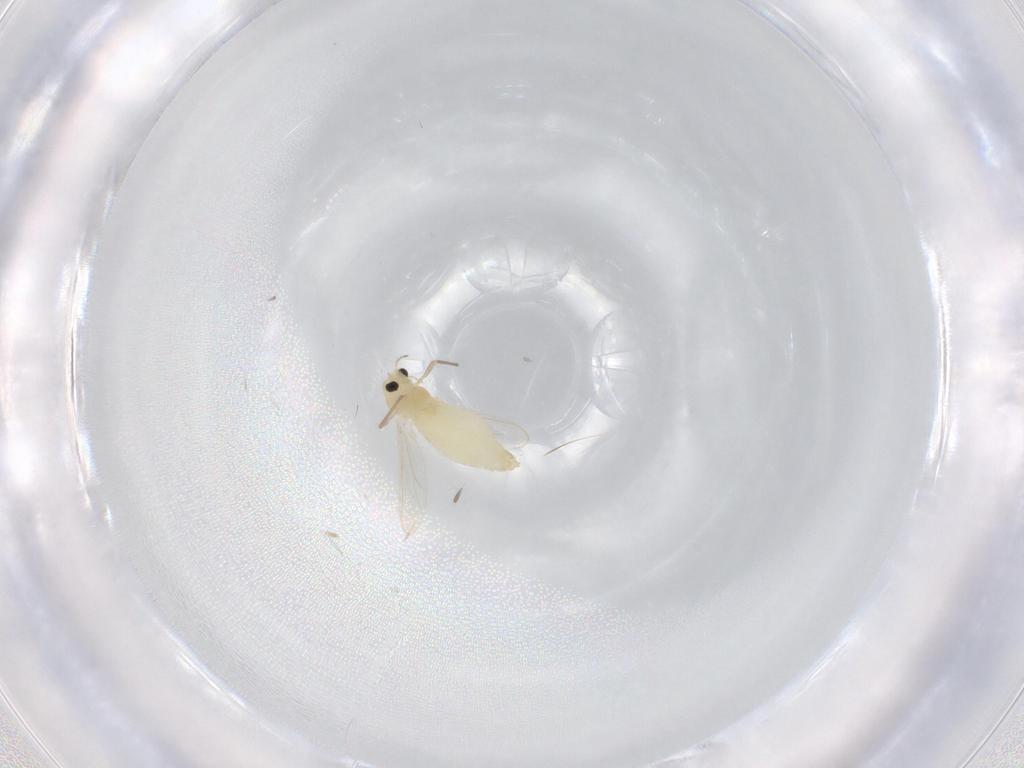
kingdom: Animalia
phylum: Arthropoda
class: Insecta
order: Diptera
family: Chironomidae
